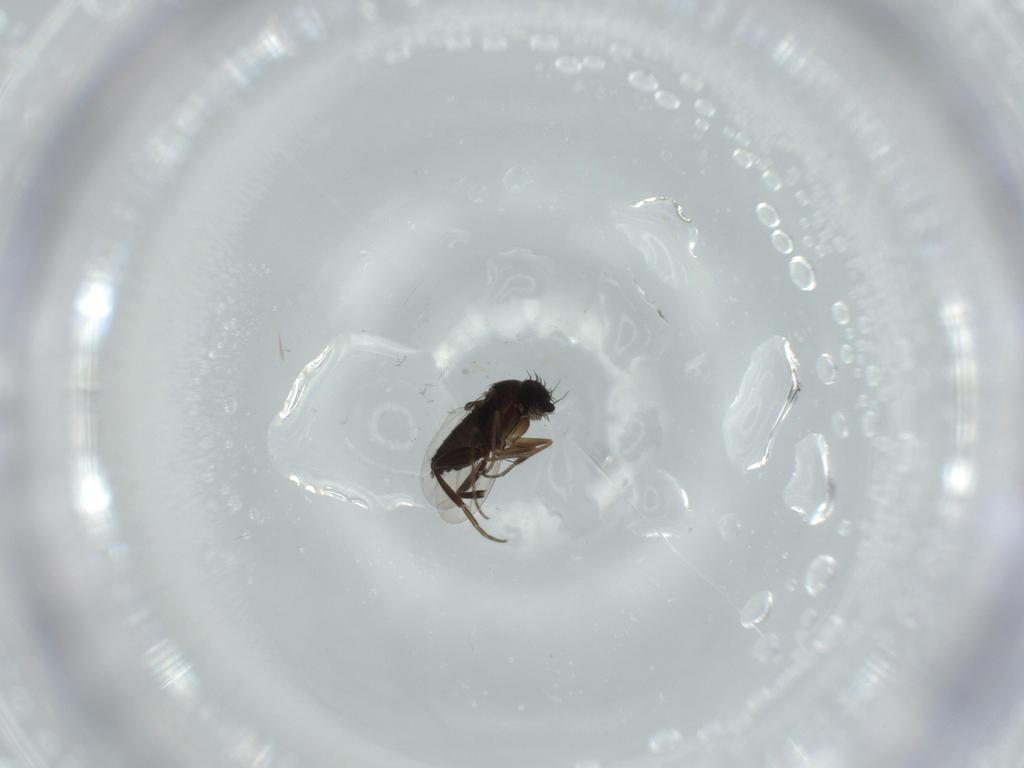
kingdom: Animalia
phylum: Arthropoda
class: Insecta
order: Diptera
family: Phoridae
